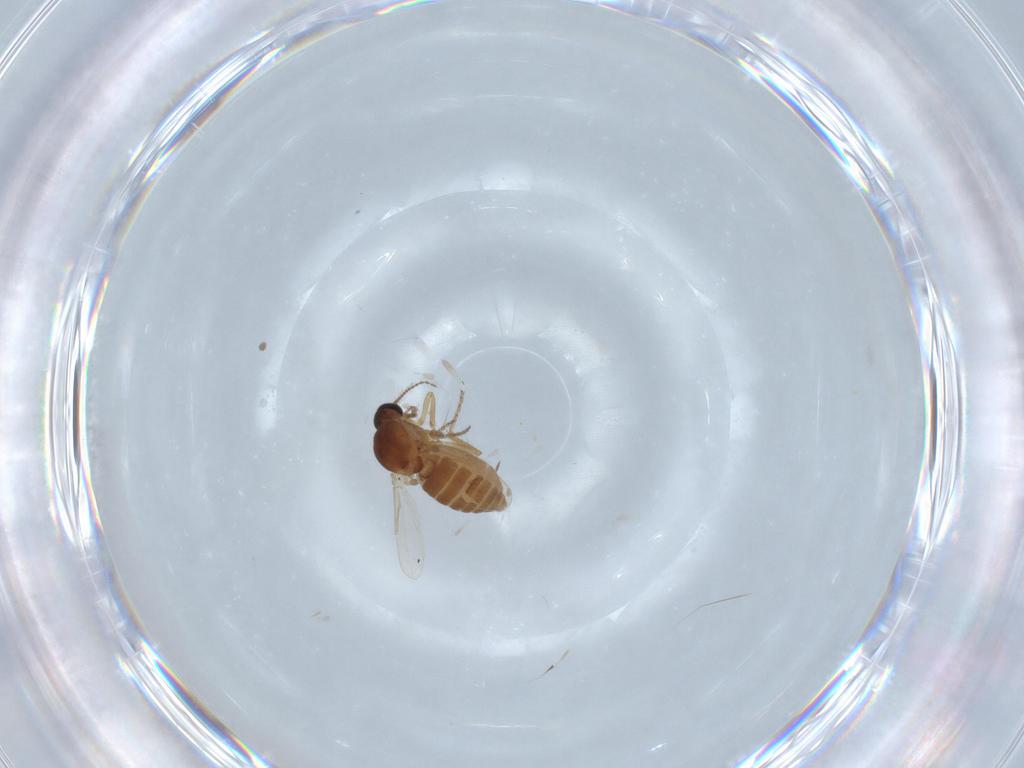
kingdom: Animalia
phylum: Arthropoda
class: Insecta
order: Diptera
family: Ceratopogonidae
